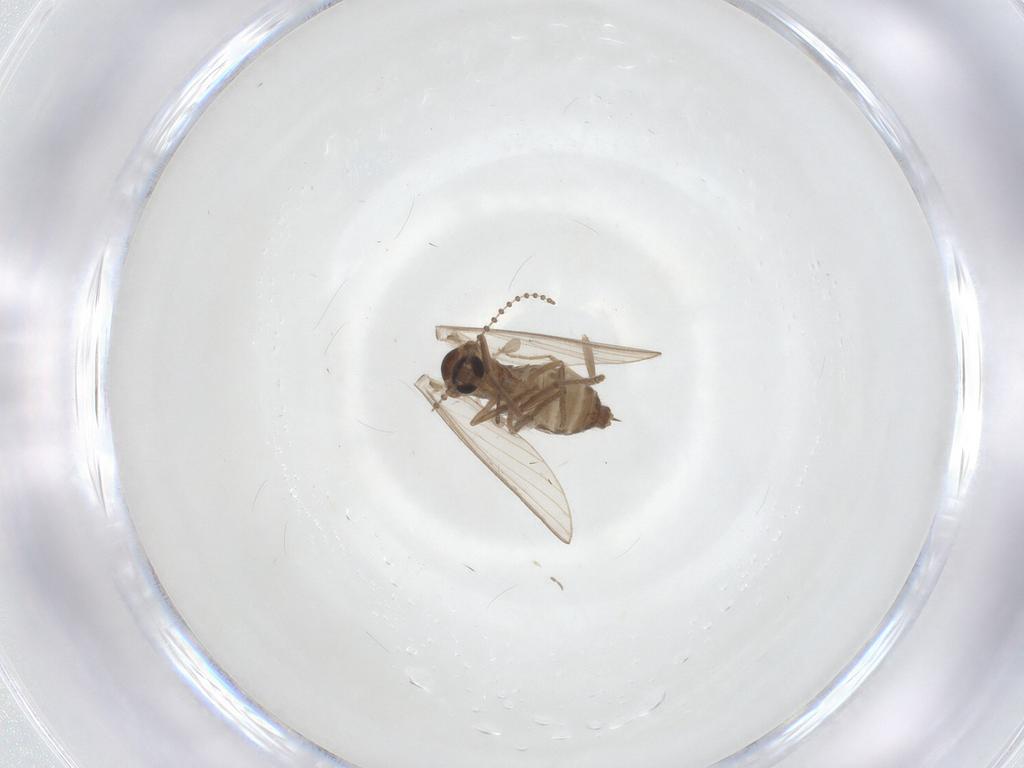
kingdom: Animalia
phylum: Arthropoda
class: Insecta
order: Diptera
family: Psychodidae
